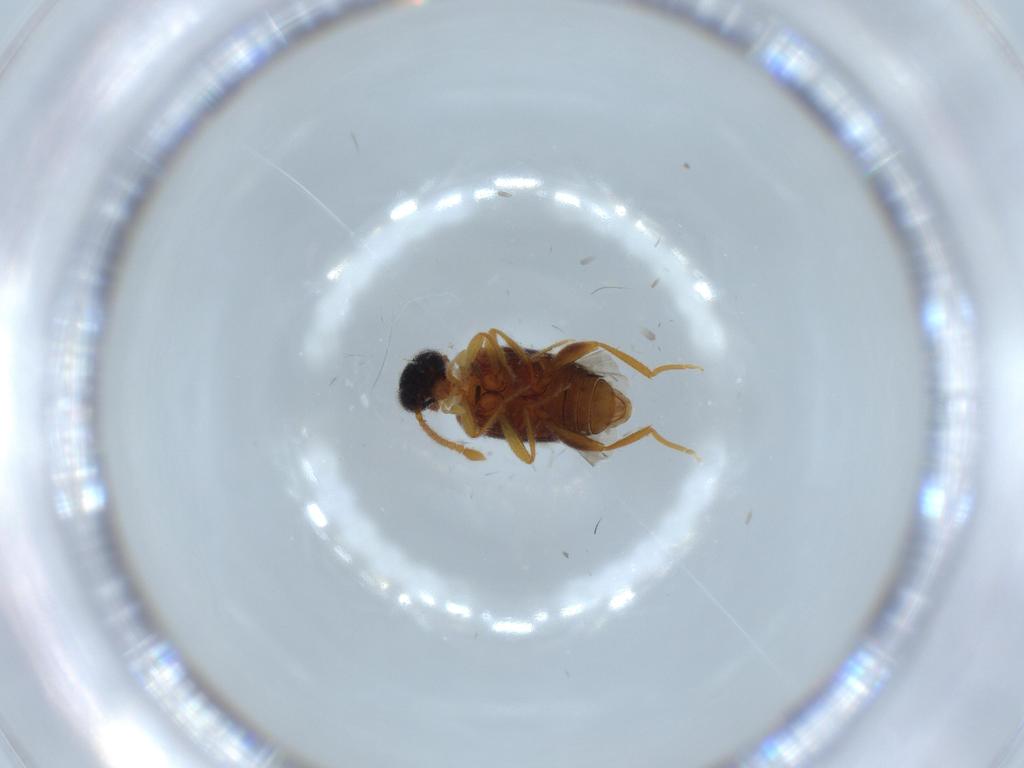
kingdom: Animalia
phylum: Arthropoda
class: Insecta
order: Coleoptera
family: Aderidae
